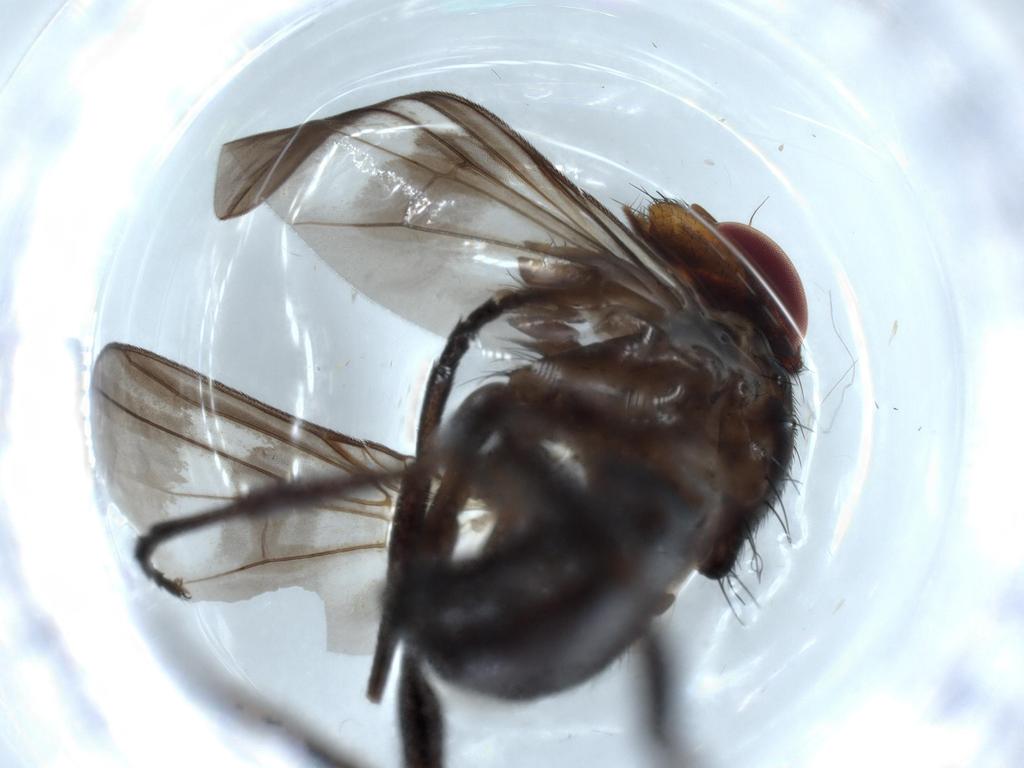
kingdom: Animalia
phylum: Arthropoda
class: Insecta
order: Diptera
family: Calliphoridae
